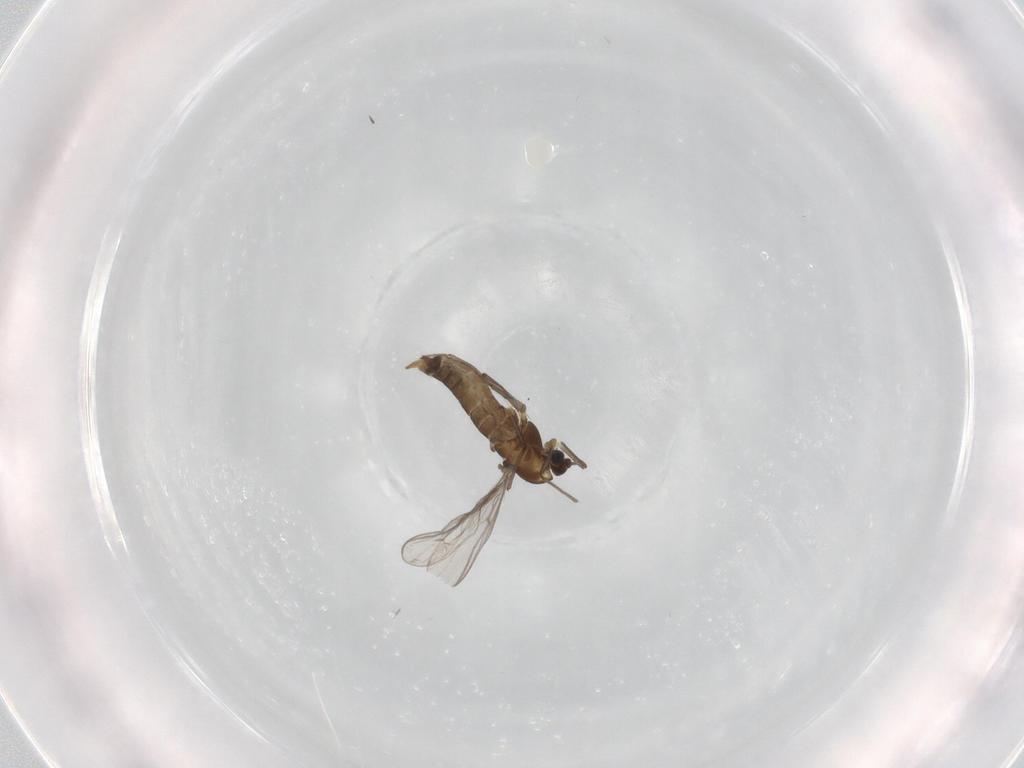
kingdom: Animalia
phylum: Arthropoda
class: Insecta
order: Diptera
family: Chironomidae
